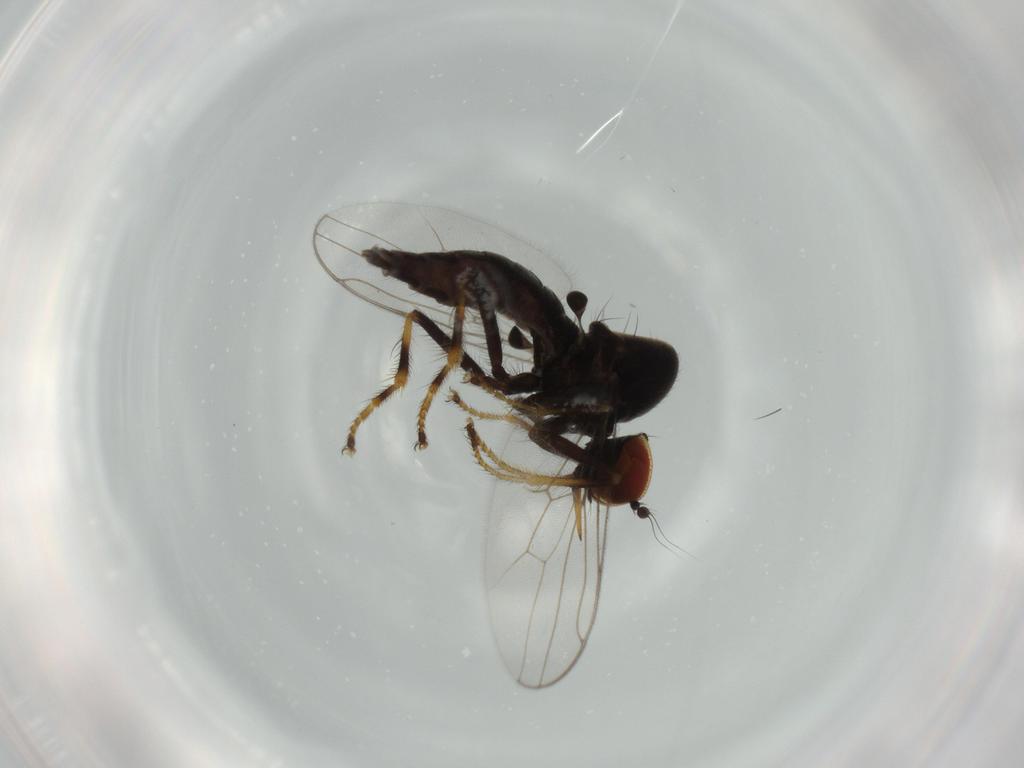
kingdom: Animalia
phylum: Arthropoda
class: Insecta
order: Diptera
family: Hybotidae
